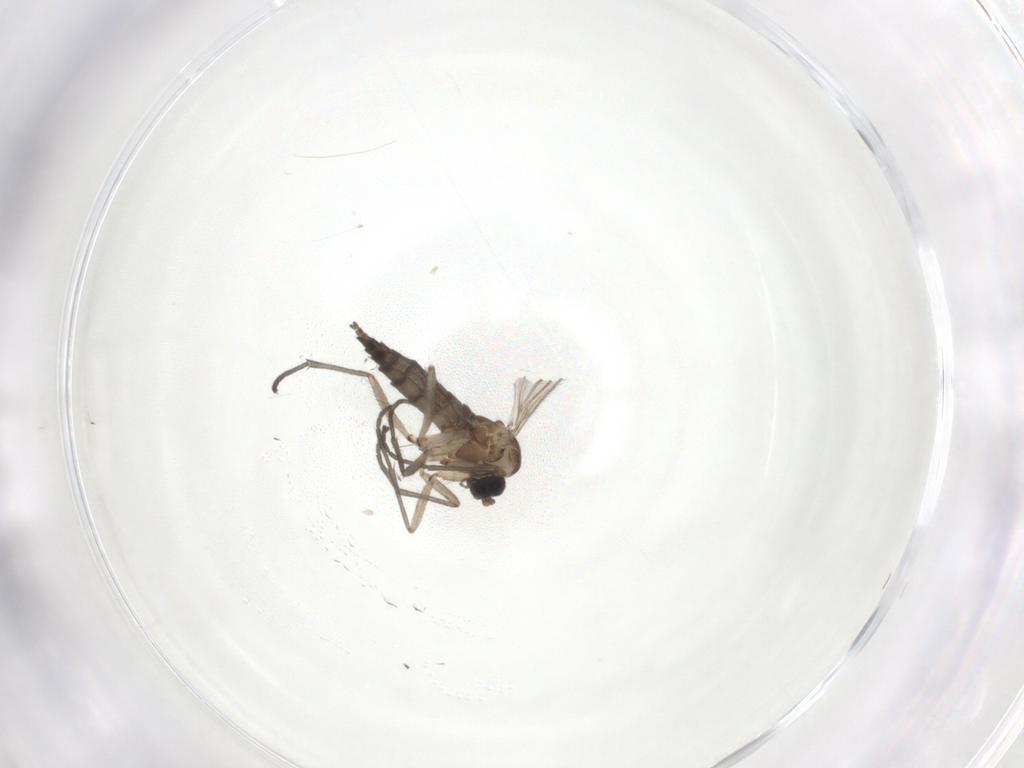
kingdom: Animalia
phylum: Arthropoda
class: Insecta
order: Diptera
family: Sciaridae
